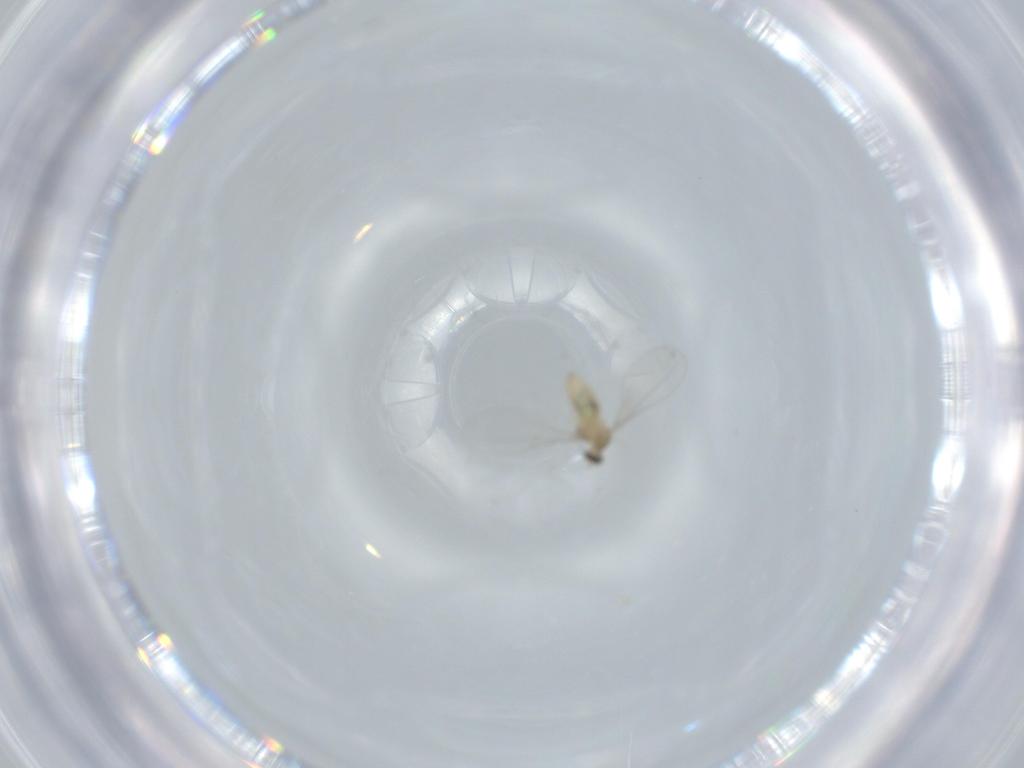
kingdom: Animalia
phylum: Arthropoda
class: Insecta
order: Diptera
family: Cecidomyiidae
